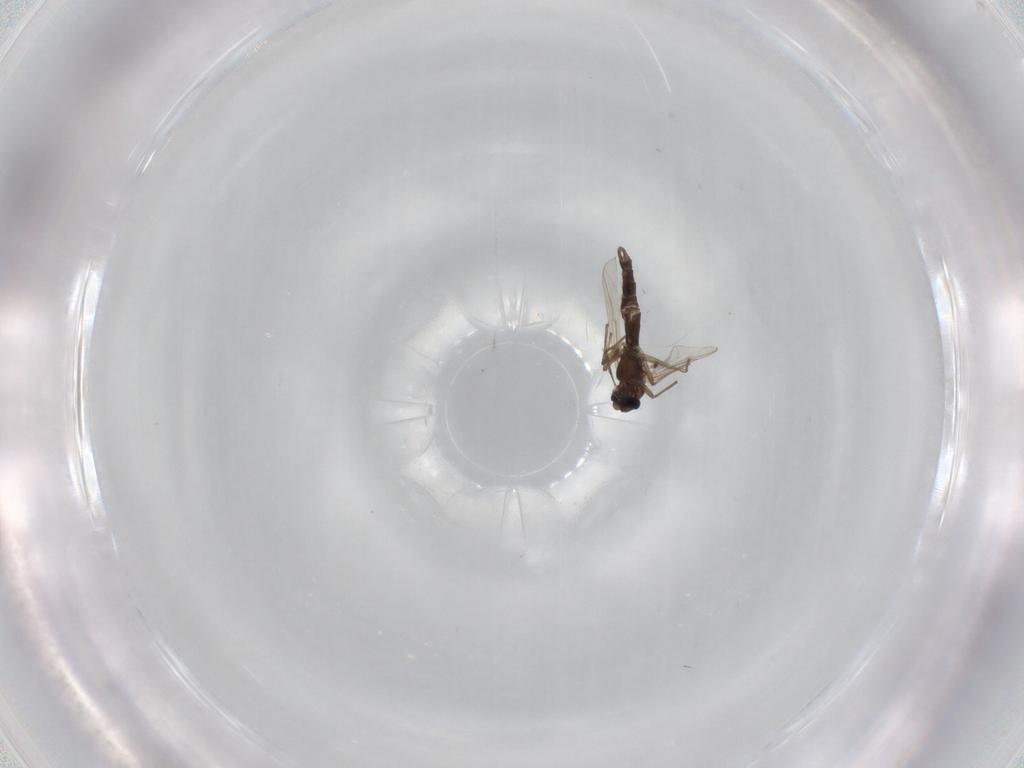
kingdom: Animalia
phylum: Arthropoda
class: Insecta
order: Diptera
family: Chironomidae
